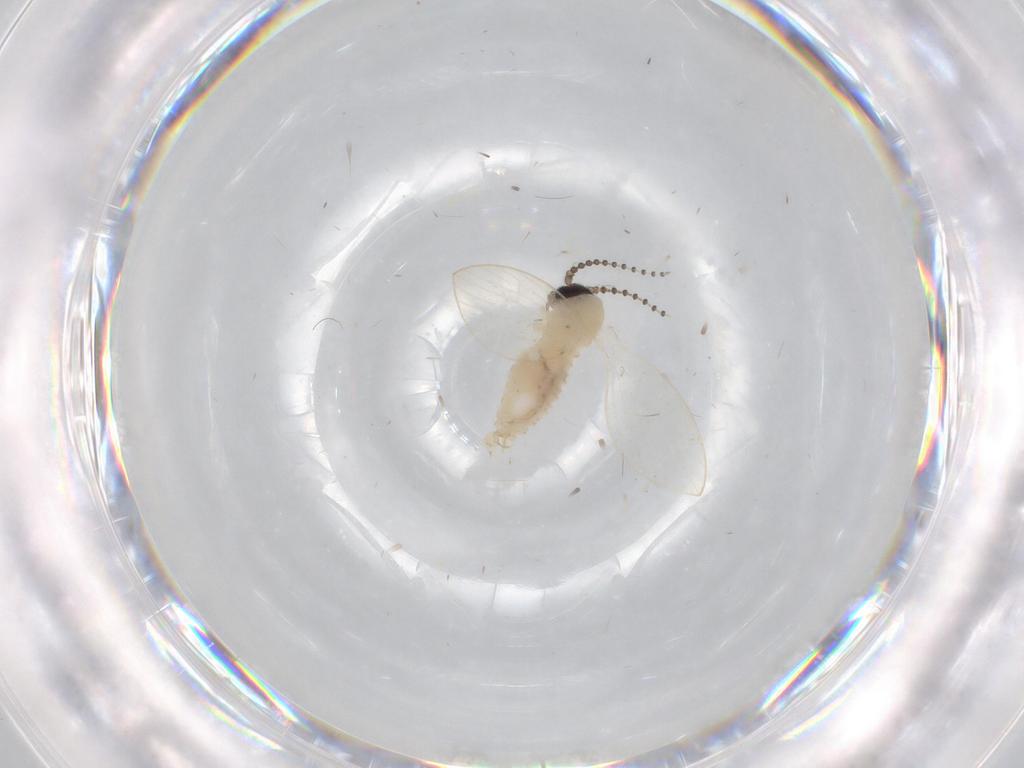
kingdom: Animalia
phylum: Arthropoda
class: Insecta
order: Diptera
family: Psychodidae
